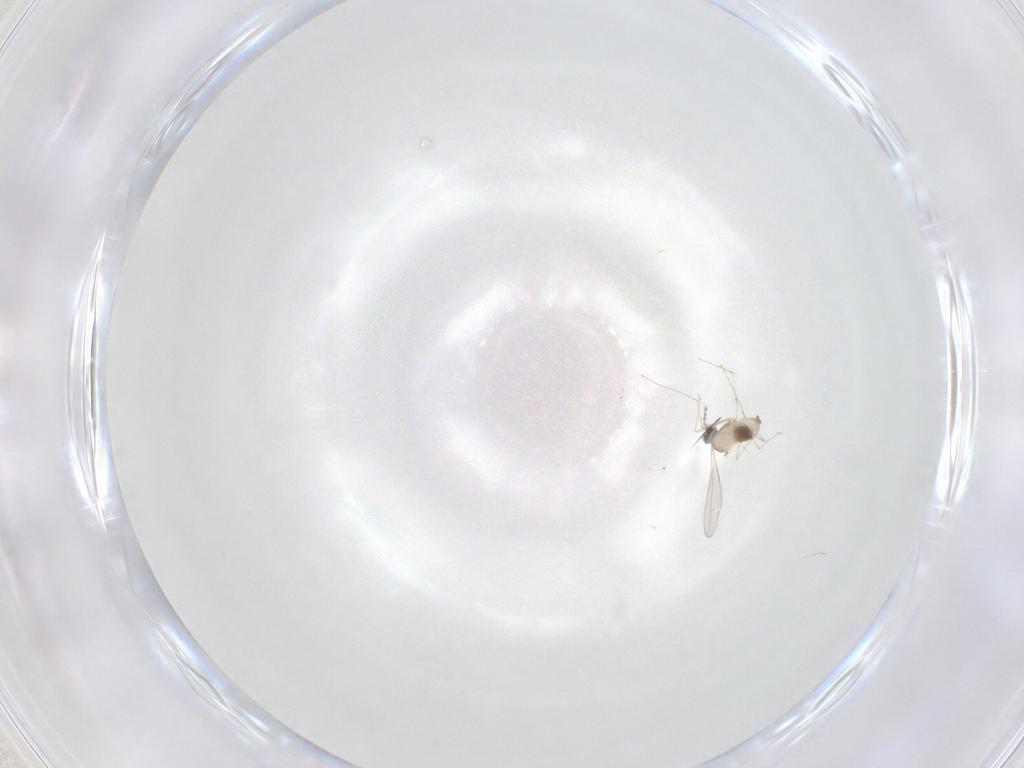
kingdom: Animalia
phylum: Arthropoda
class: Insecta
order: Diptera
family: Cecidomyiidae
